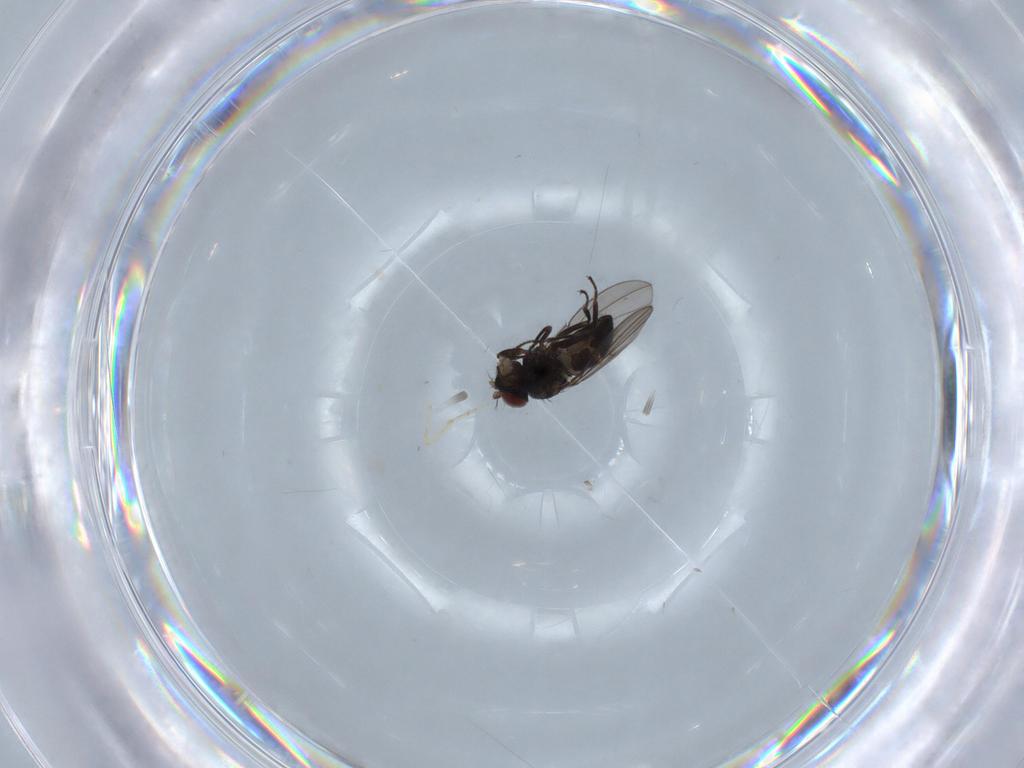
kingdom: Animalia
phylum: Arthropoda
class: Insecta
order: Diptera
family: Ephydridae
